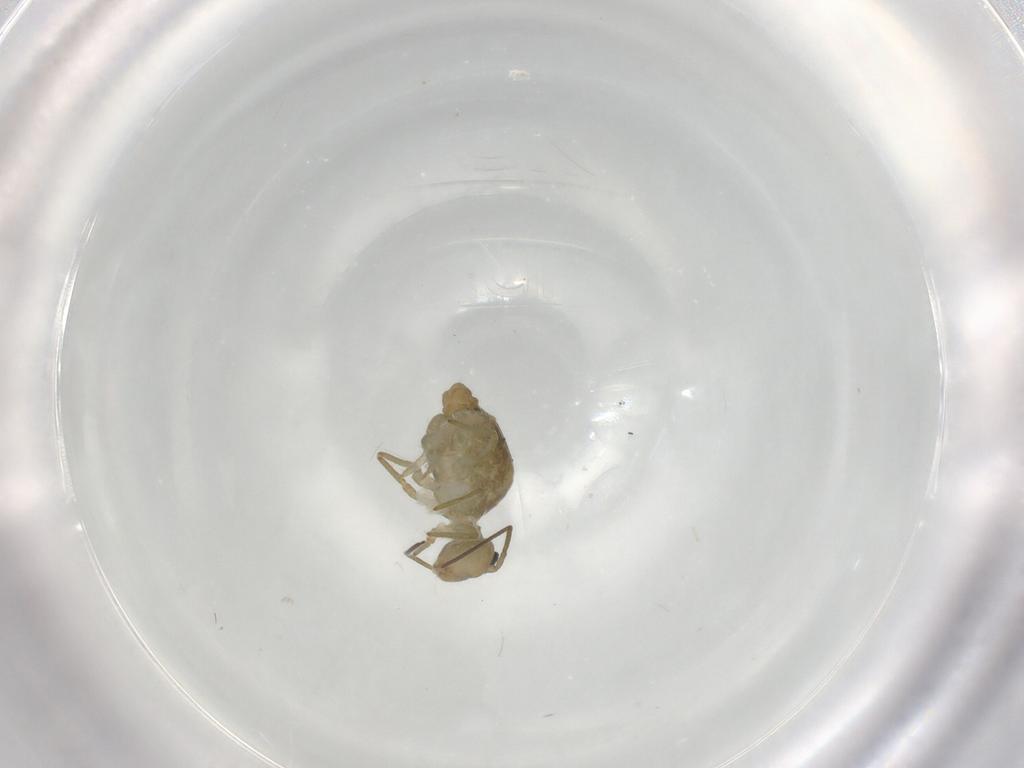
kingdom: Animalia
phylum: Arthropoda
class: Collembola
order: Symphypleona
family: Sminthuridae
